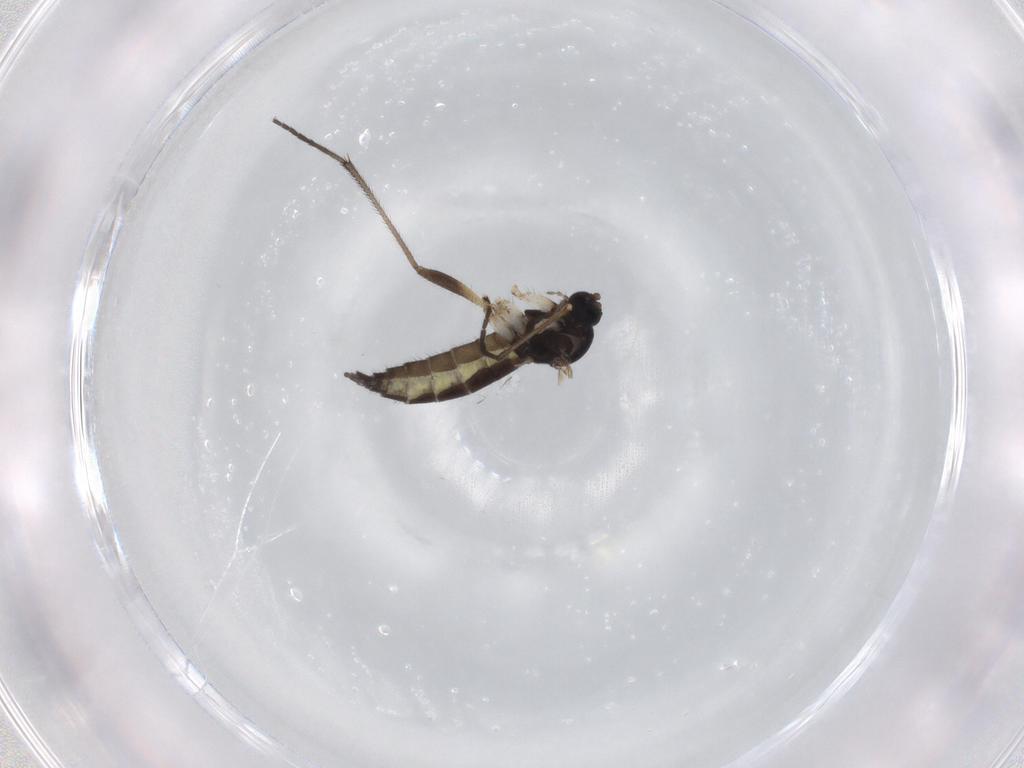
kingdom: Animalia
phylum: Arthropoda
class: Insecta
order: Diptera
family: Sciaridae
